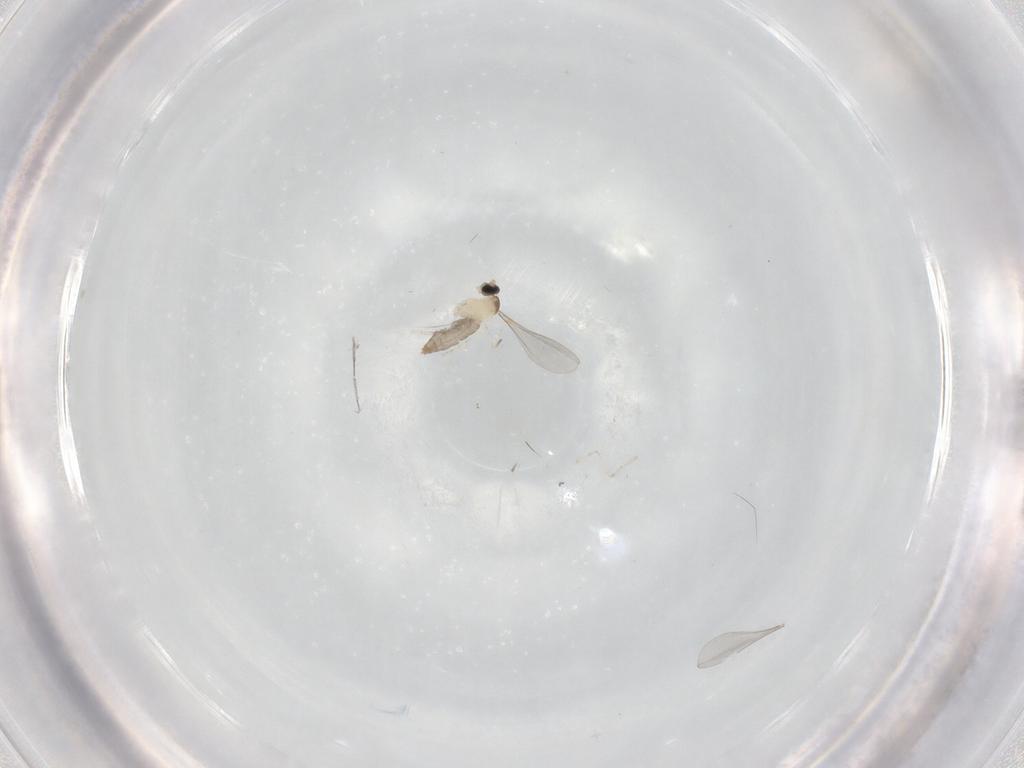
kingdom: Animalia
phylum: Arthropoda
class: Insecta
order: Diptera
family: Cecidomyiidae
